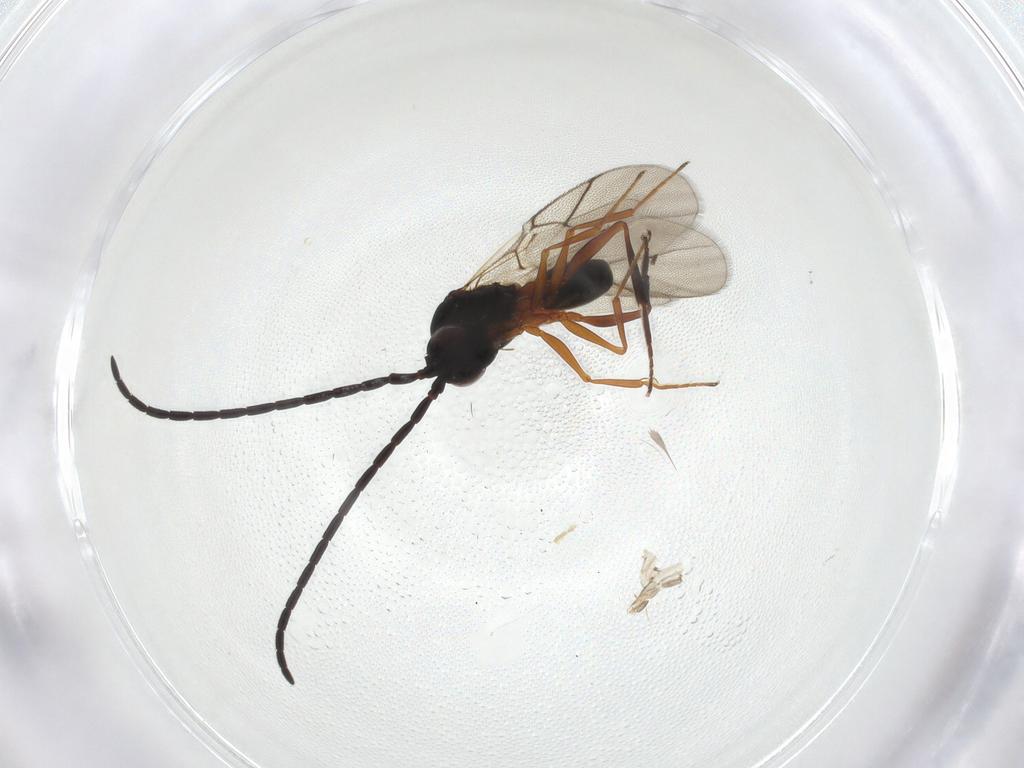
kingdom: Animalia
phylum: Arthropoda
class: Insecta
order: Hymenoptera
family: Figitidae
